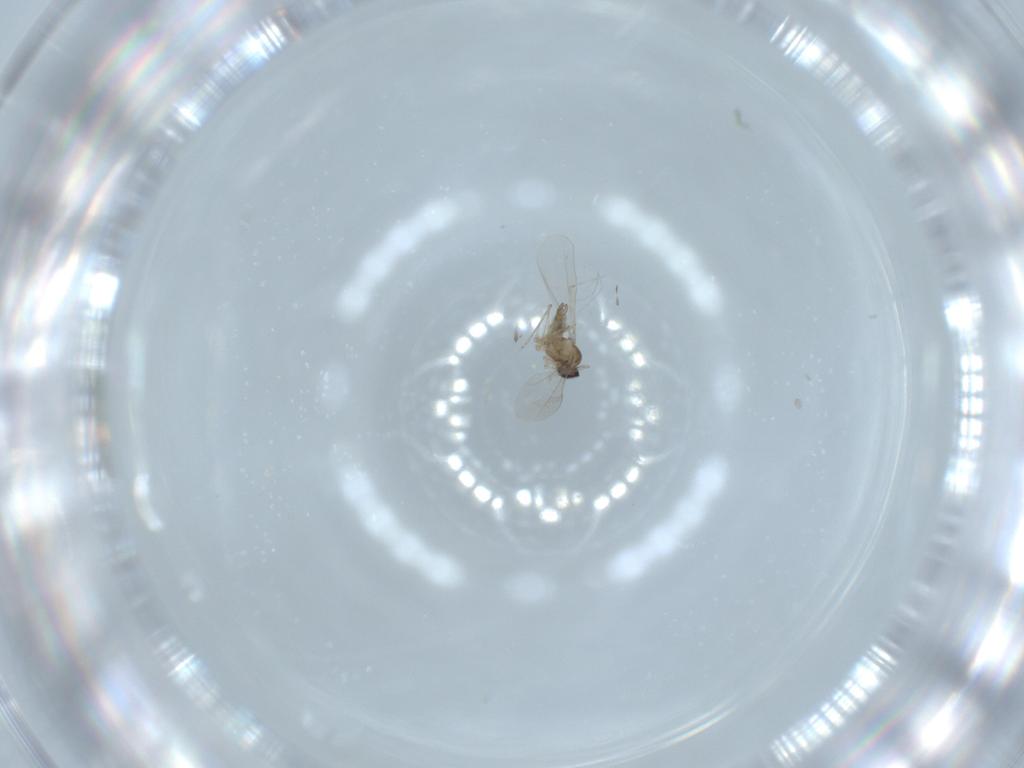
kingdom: Animalia
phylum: Arthropoda
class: Insecta
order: Diptera
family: Cecidomyiidae
